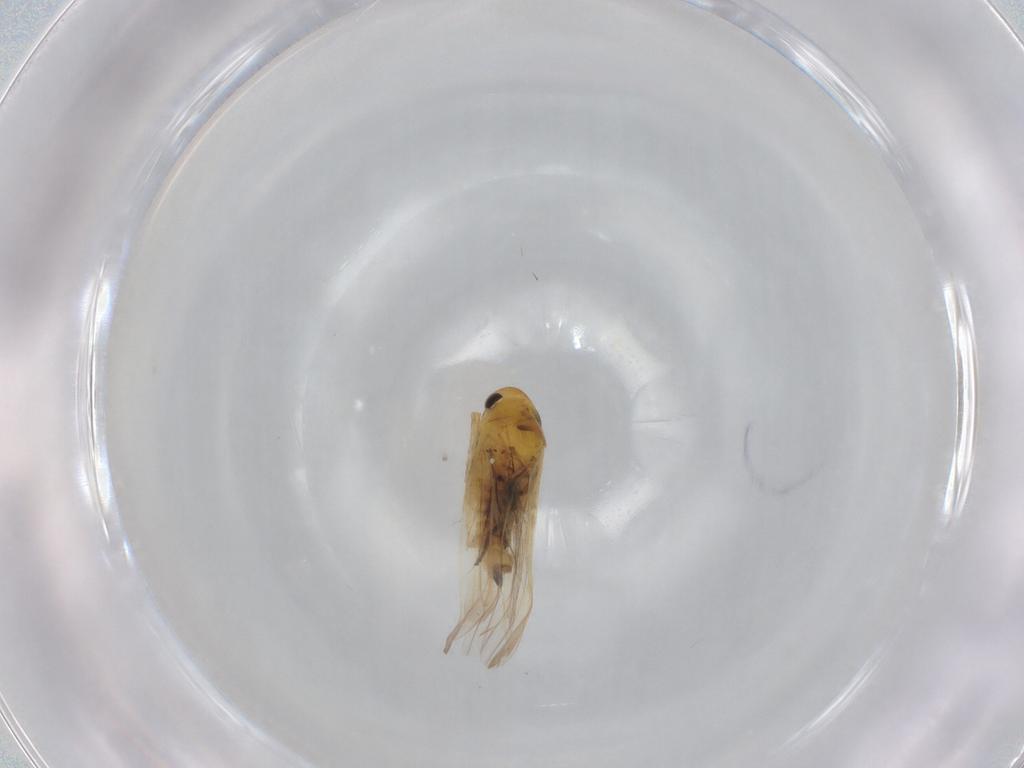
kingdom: Animalia
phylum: Arthropoda
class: Insecta
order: Hemiptera
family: Cicadellidae
